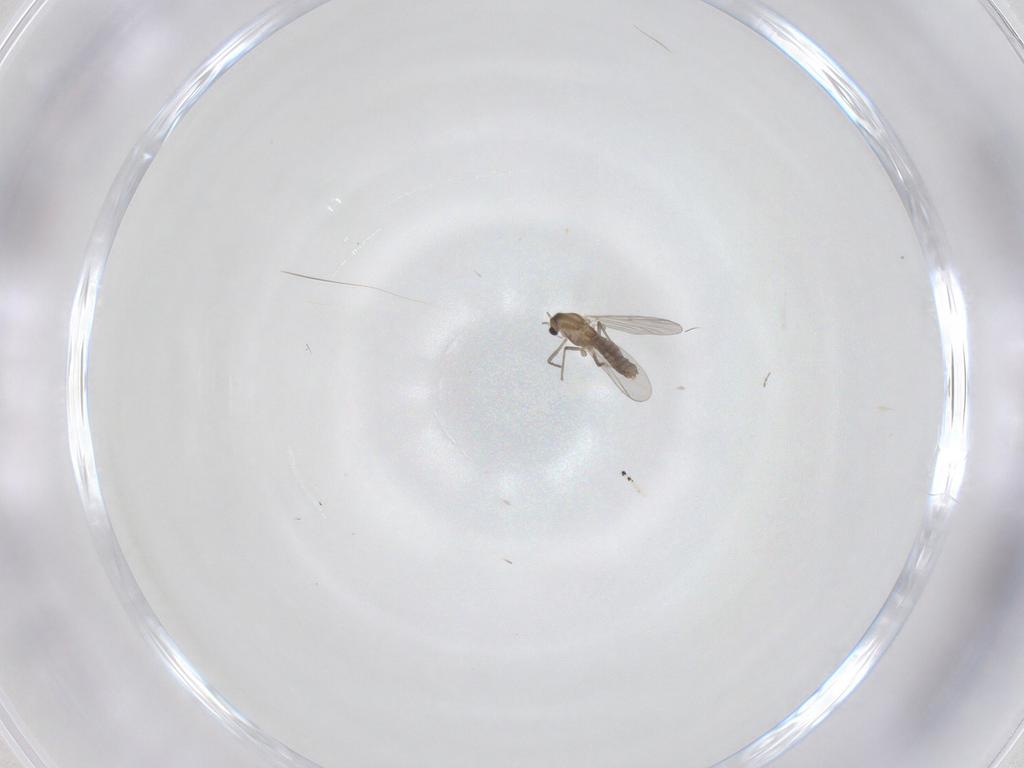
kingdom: Animalia
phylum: Arthropoda
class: Insecta
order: Diptera
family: Chironomidae
